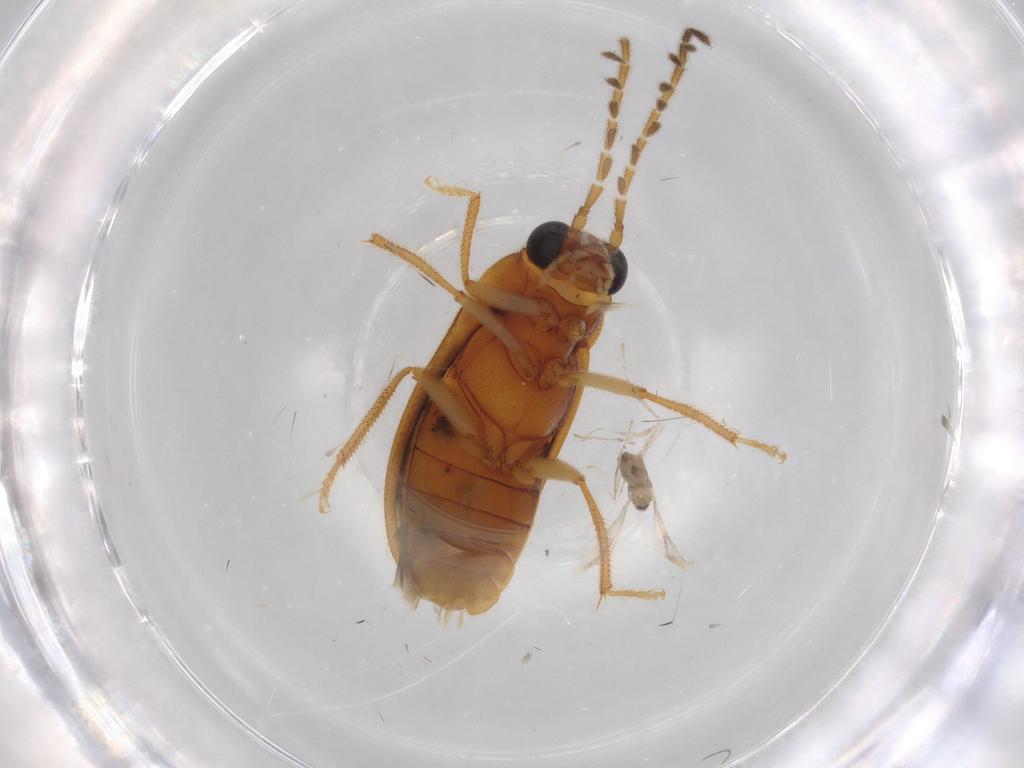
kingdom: Animalia
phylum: Arthropoda
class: Insecta
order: Coleoptera
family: Ptilodactylidae
